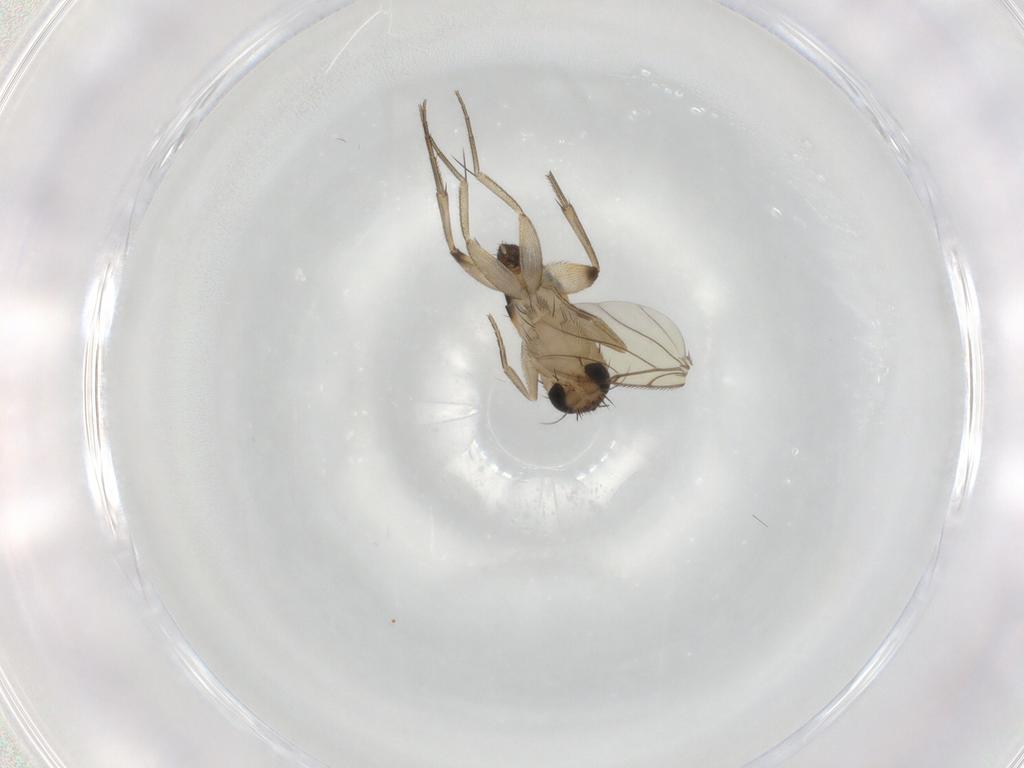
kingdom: Animalia
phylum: Arthropoda
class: Insecta
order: Diptera
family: Phoridae
